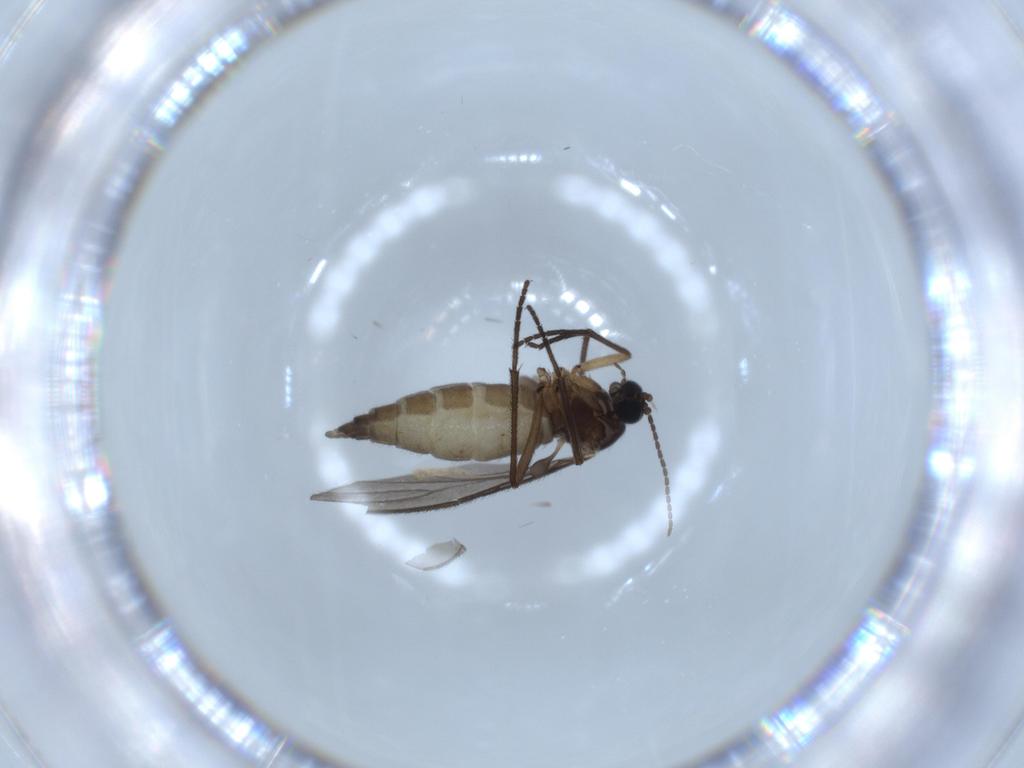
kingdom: Animalia
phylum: Arthropoda
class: Insecta
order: Diptera
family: Sciaridae
